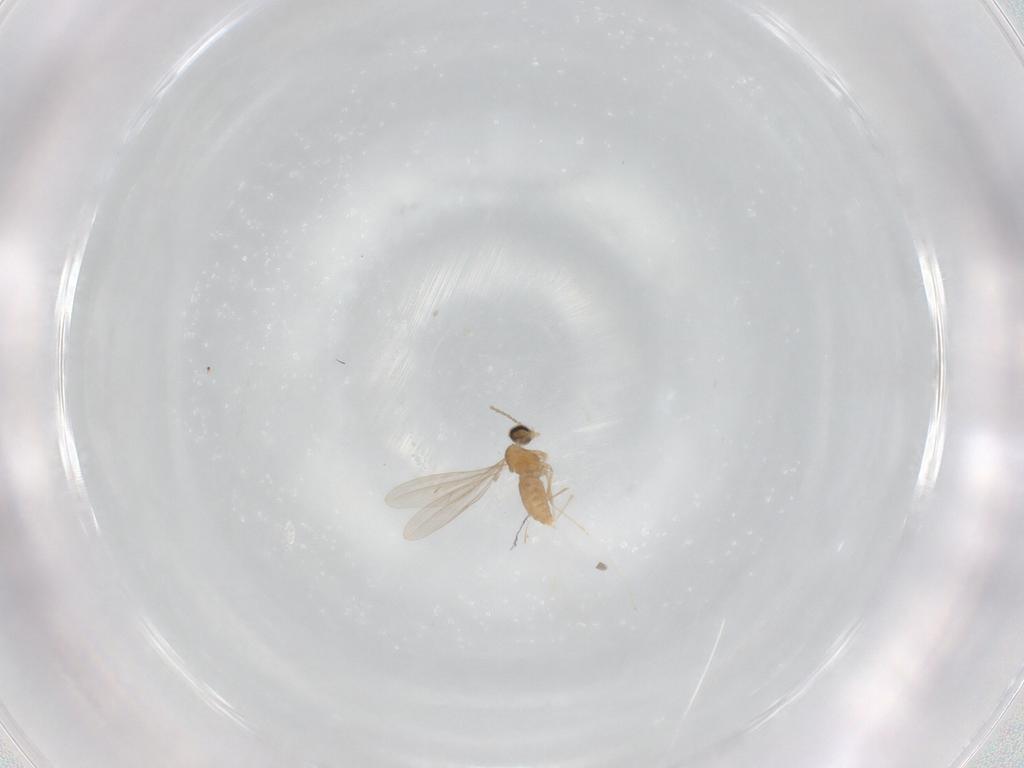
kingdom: Animalia
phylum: Arthropoda
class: Insecta
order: Diptera
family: Cecidomyiidae
